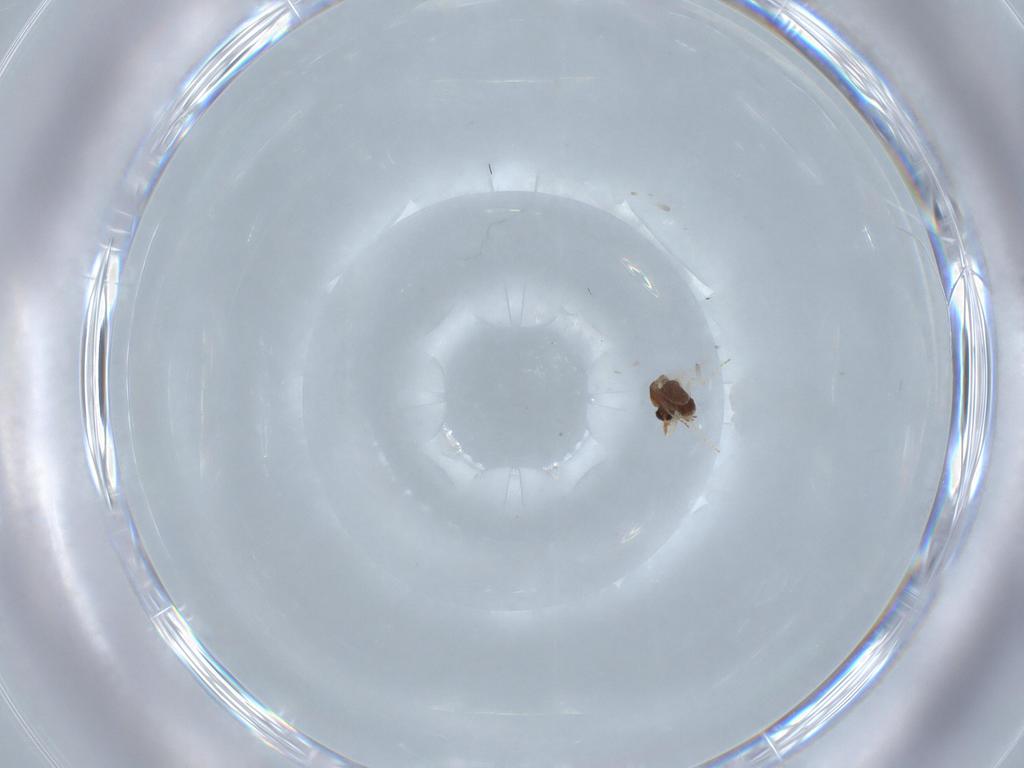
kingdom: Animalia
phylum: Arthropoda
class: Insecta
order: Diptera
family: Ceratopogonidae
